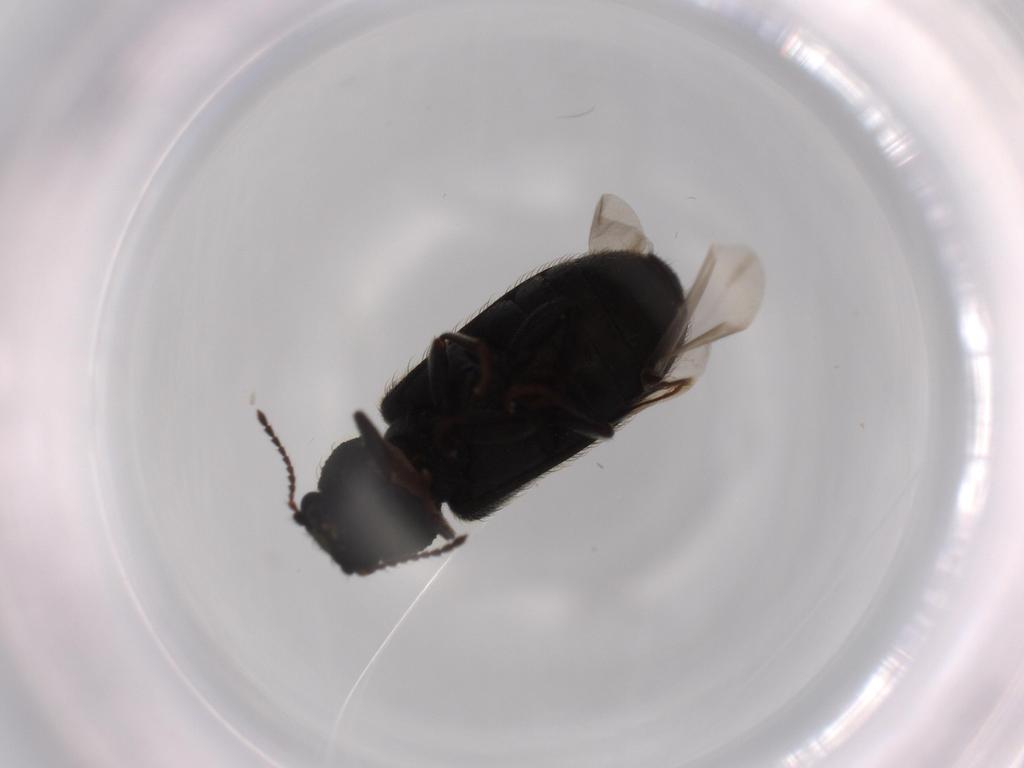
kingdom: Animalia
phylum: Arthropoda
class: Insecta
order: Coleoptera
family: Dasytidae
